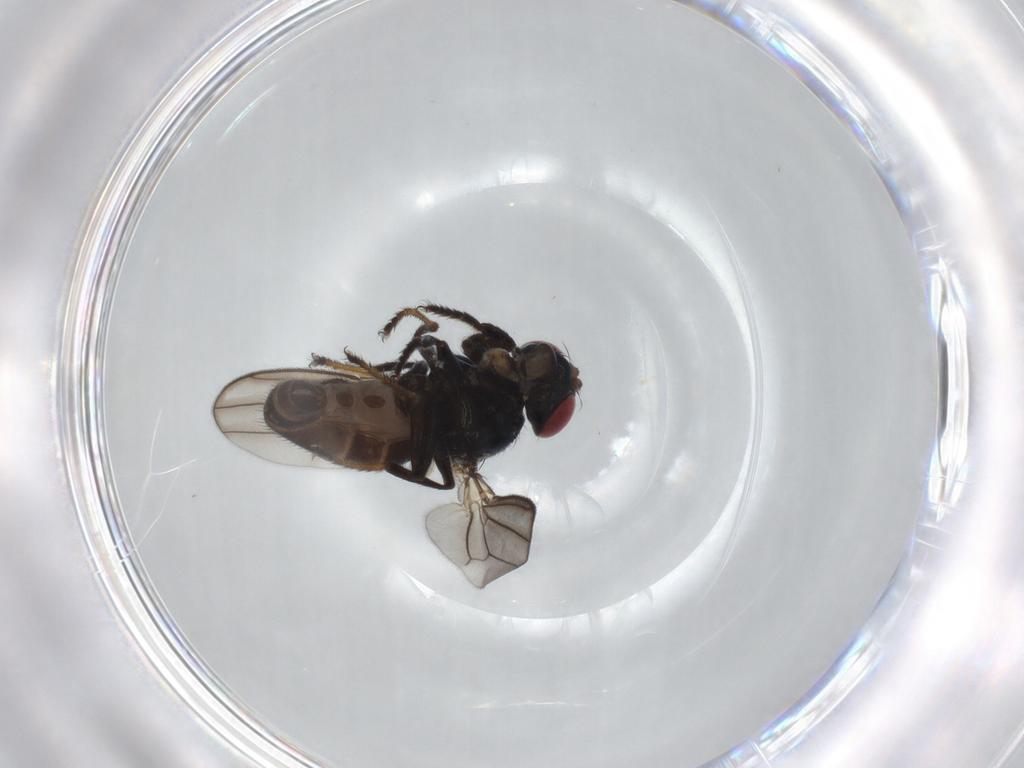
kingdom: Animalia
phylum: Arthropoda
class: Insecta
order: Diptera
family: Ephydridae
